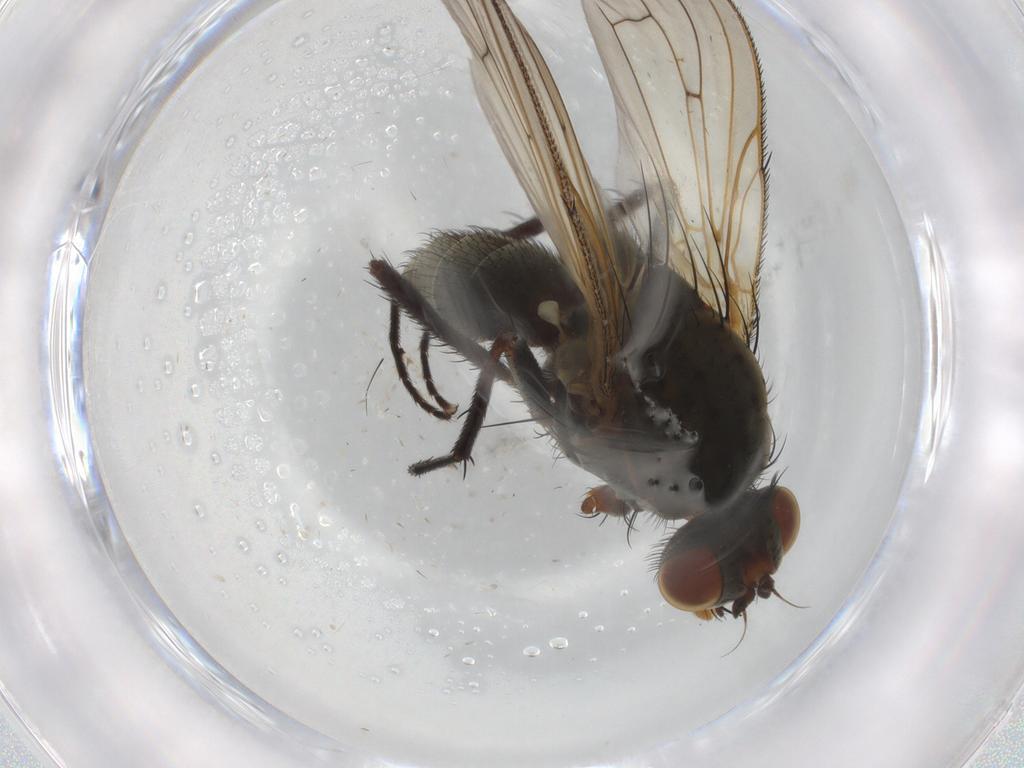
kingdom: Animalia
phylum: Arthropoda
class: Insecta
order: Diptera
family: Anthomyiidae
